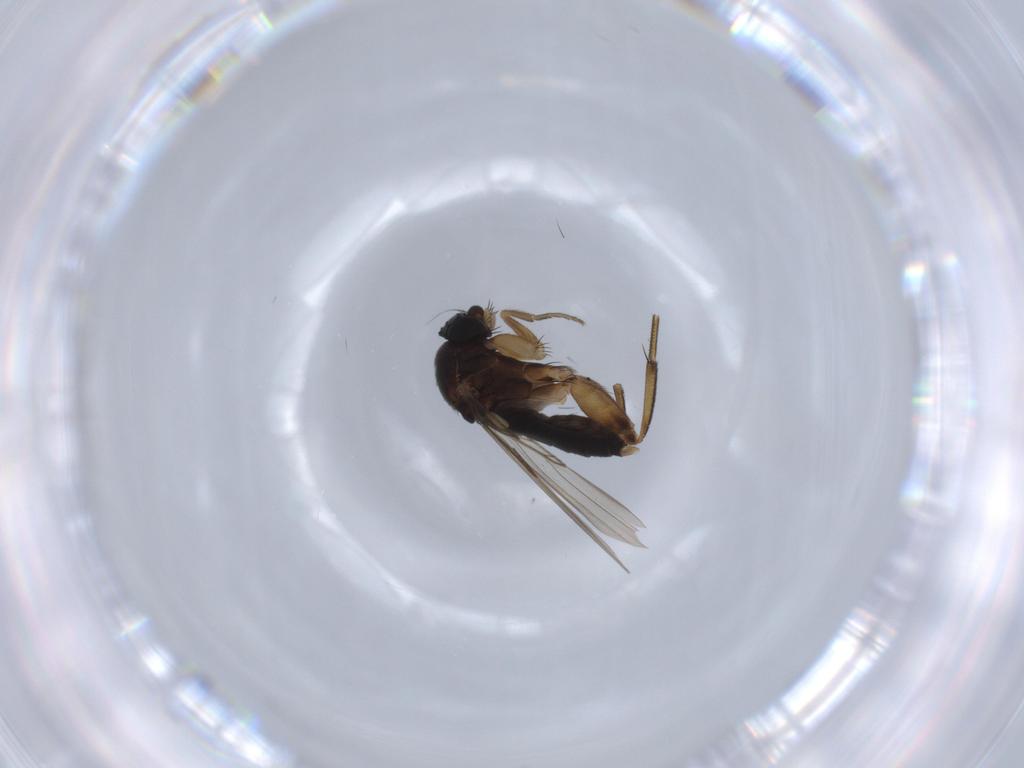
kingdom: Animalia
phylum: Arthropoda
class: Insecta
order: Diptera
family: Phoridae
